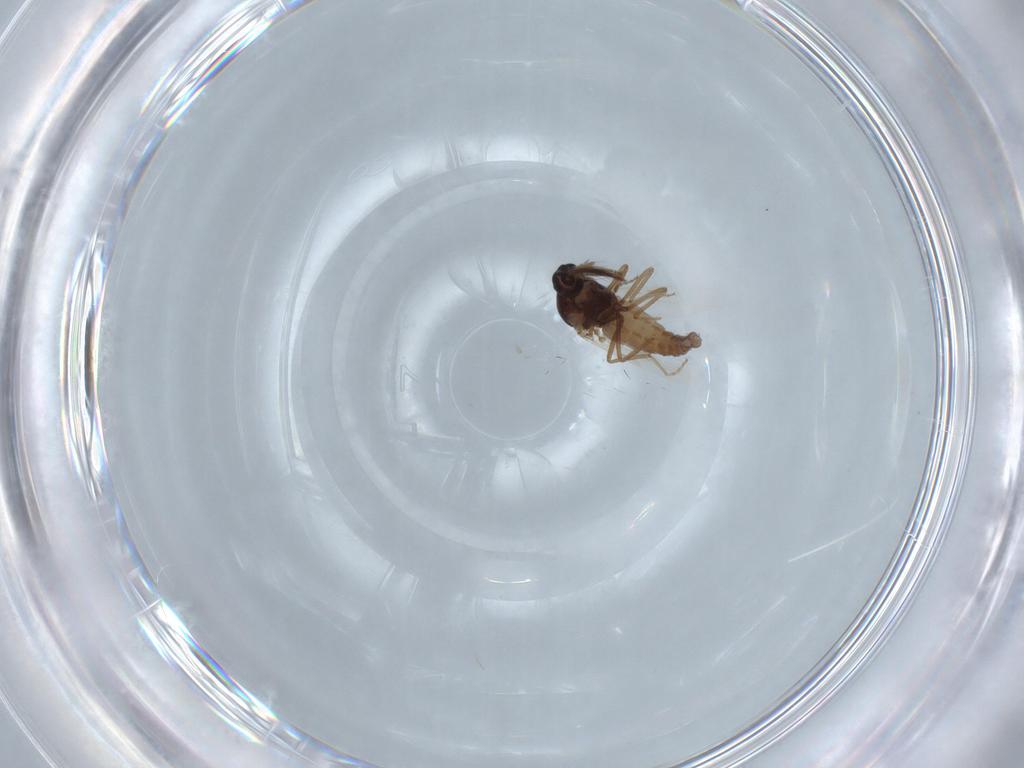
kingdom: Animalia
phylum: Arthropoda
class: Insecta
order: Diptera
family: Ceratopogonidae
